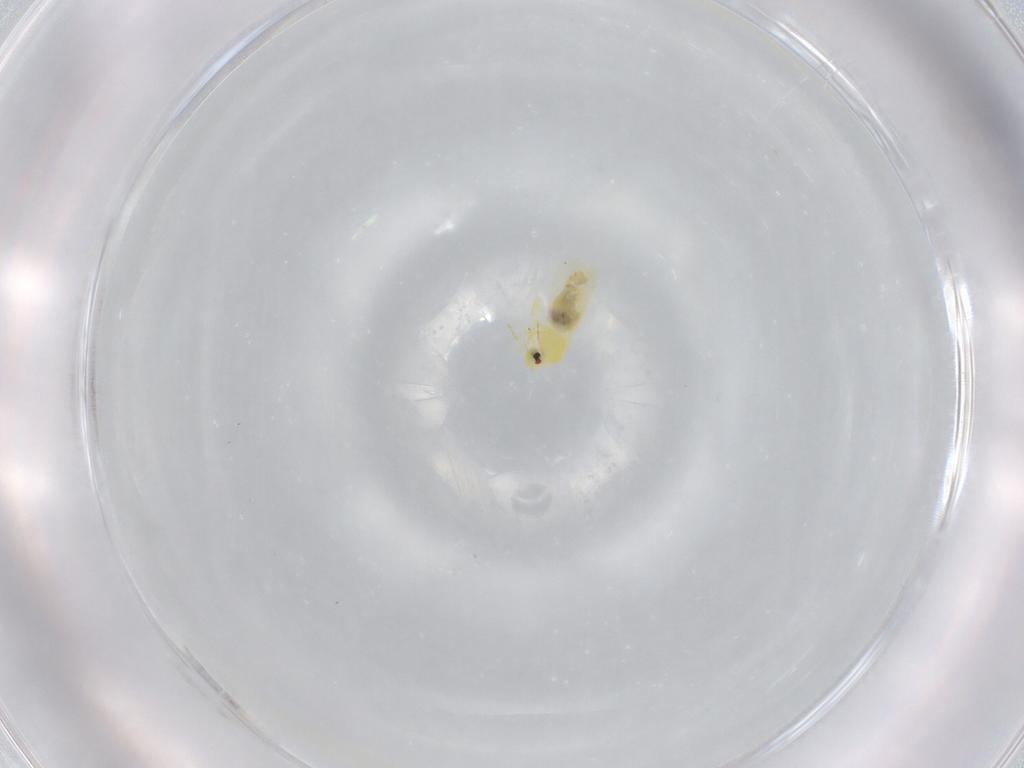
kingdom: Animalia
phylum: Arthropoda
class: Insecta
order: Hemiptera
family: Aleyrodidae
